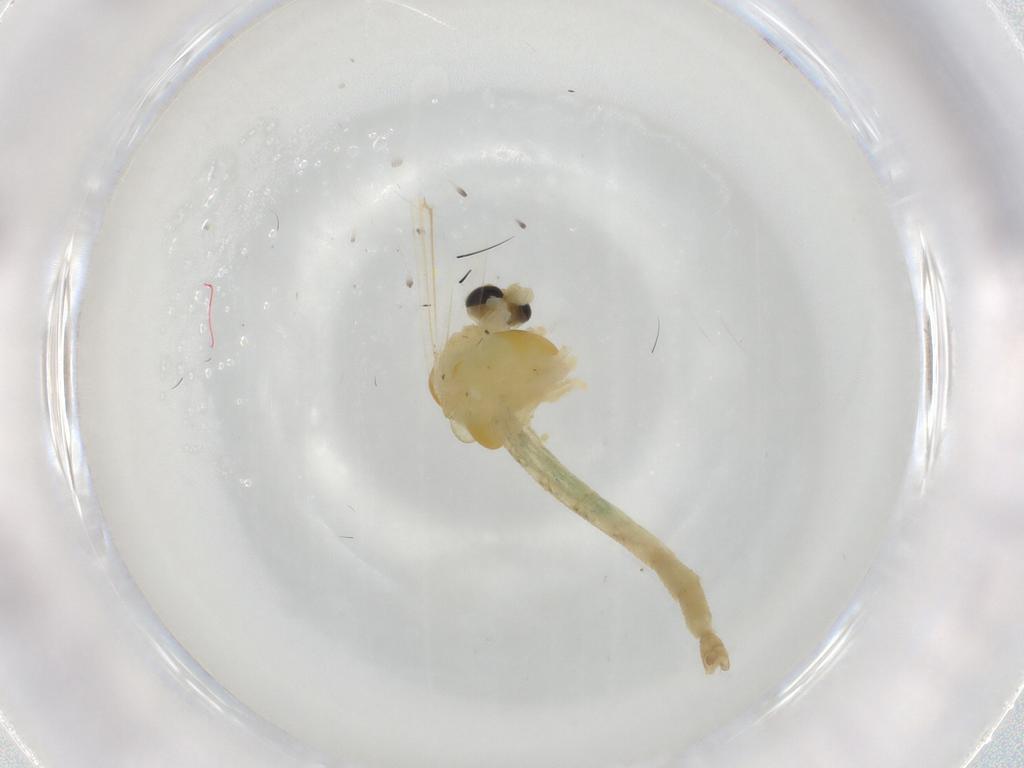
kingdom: Animalia
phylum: Arthropoda
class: Insecta
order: Diptera
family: Chironomidae
